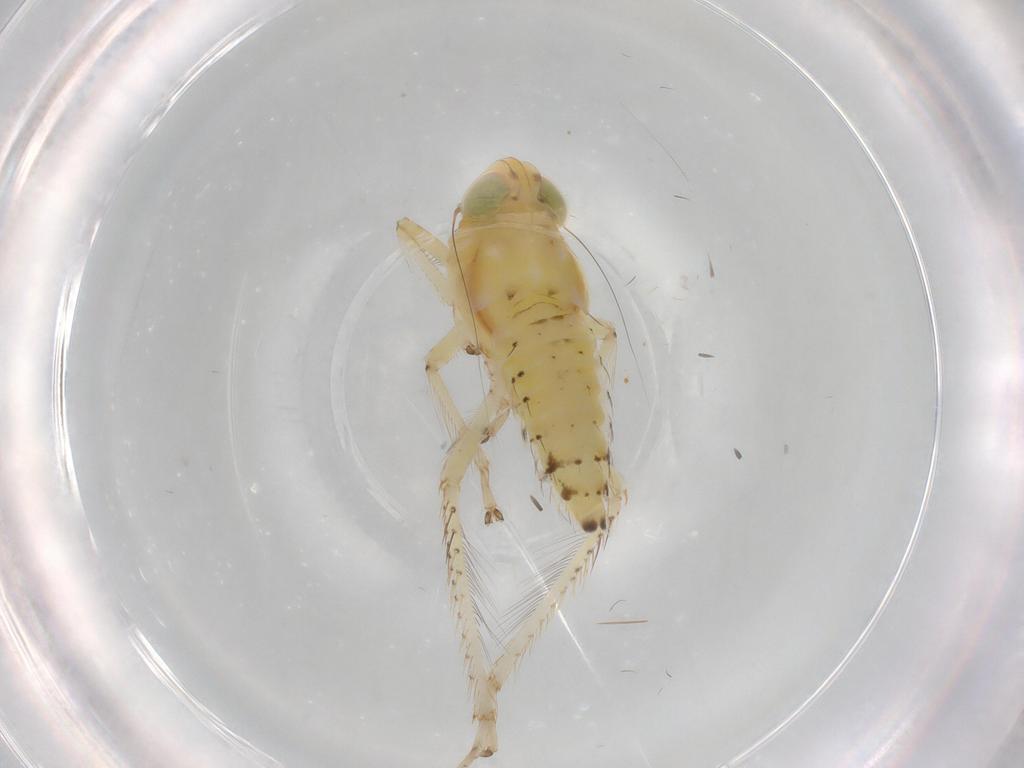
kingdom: Animalia
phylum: Arthropoda
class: Insecta
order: Hemiptera
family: Cicadellidae
